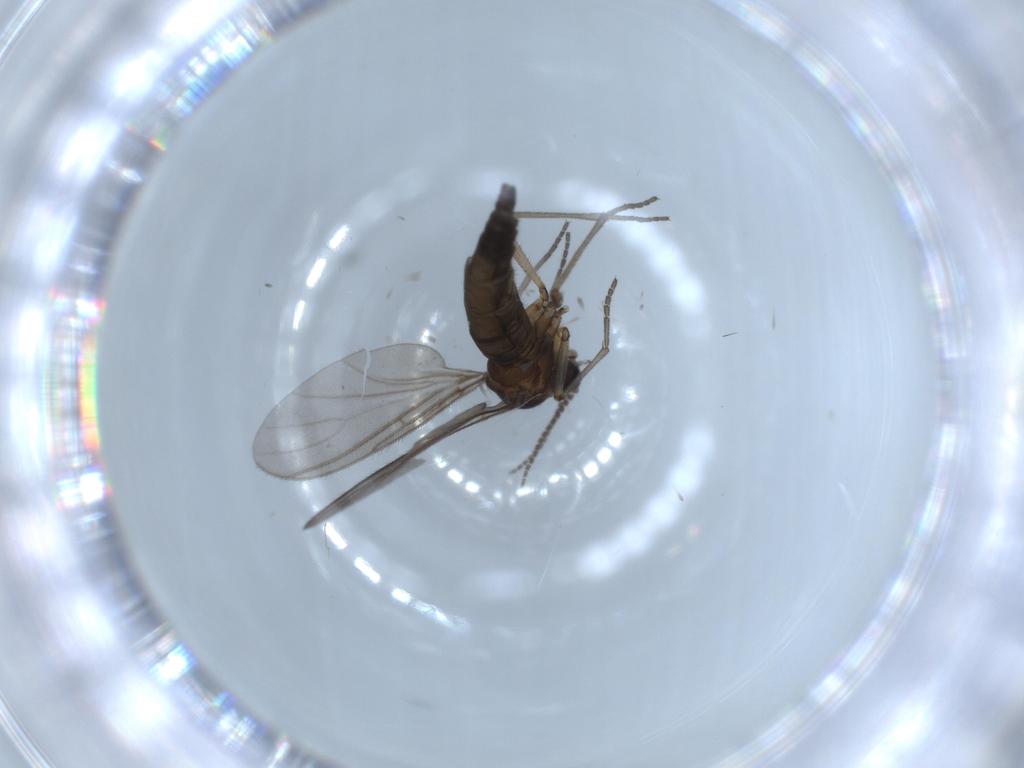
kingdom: Animalia
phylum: Arthropoda
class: Insecta
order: Diptera
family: Sciaridae
